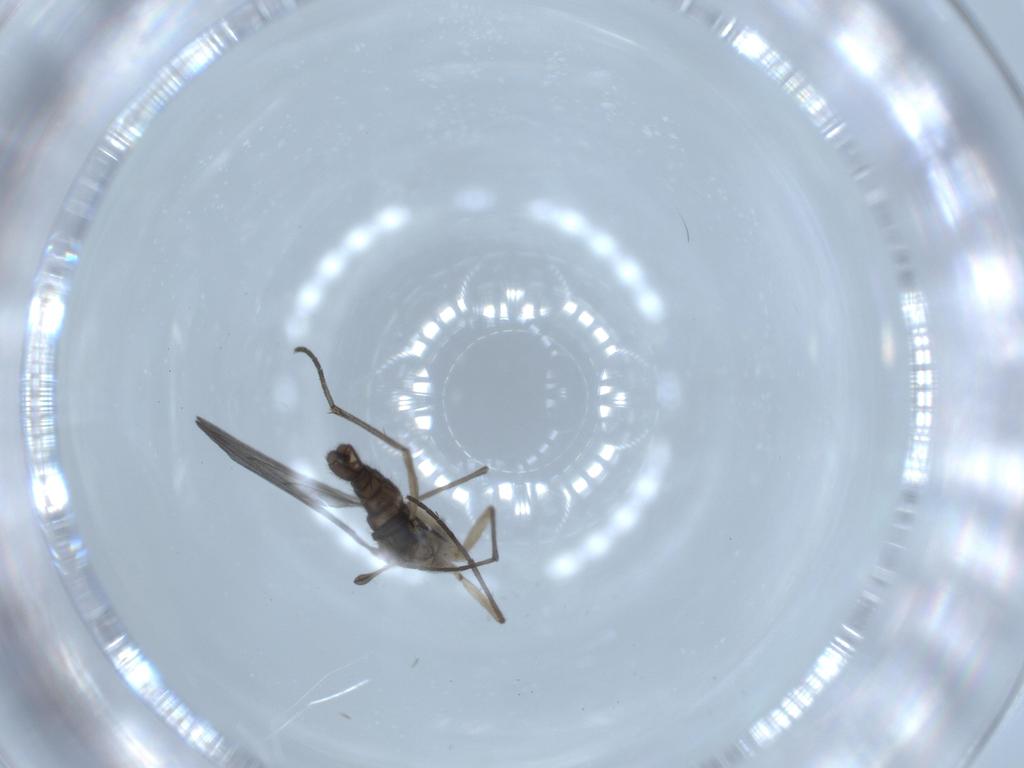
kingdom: Animalia
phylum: Arthropoda
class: Insecta
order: Diptera
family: Sciaridae
